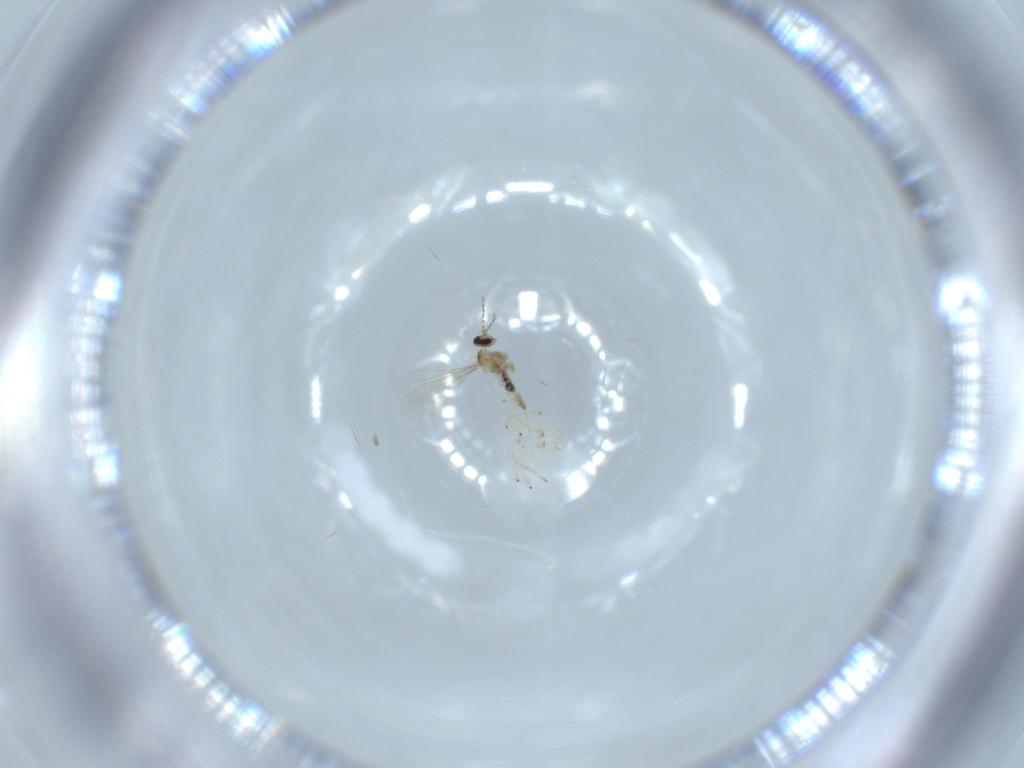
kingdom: Animalia
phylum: Arthropoda
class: Insecta
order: Diptera
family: Cecidomyiidae
